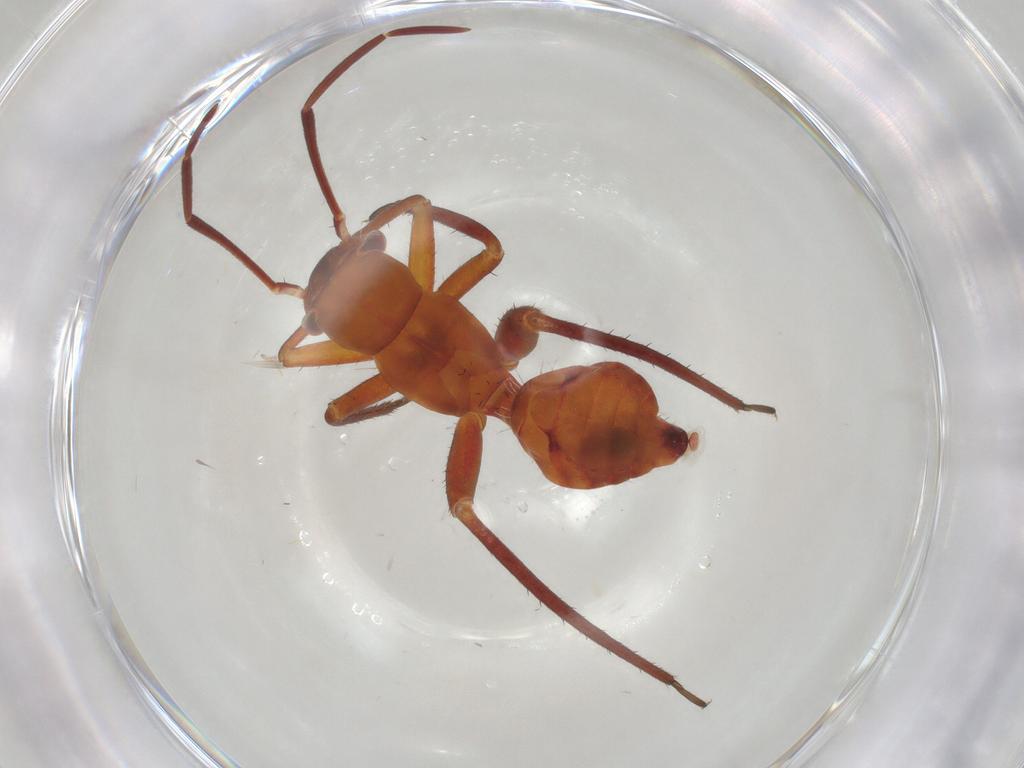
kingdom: Animalia
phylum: Arthropoda
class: Insecta
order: Hemiptera
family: Miridae
